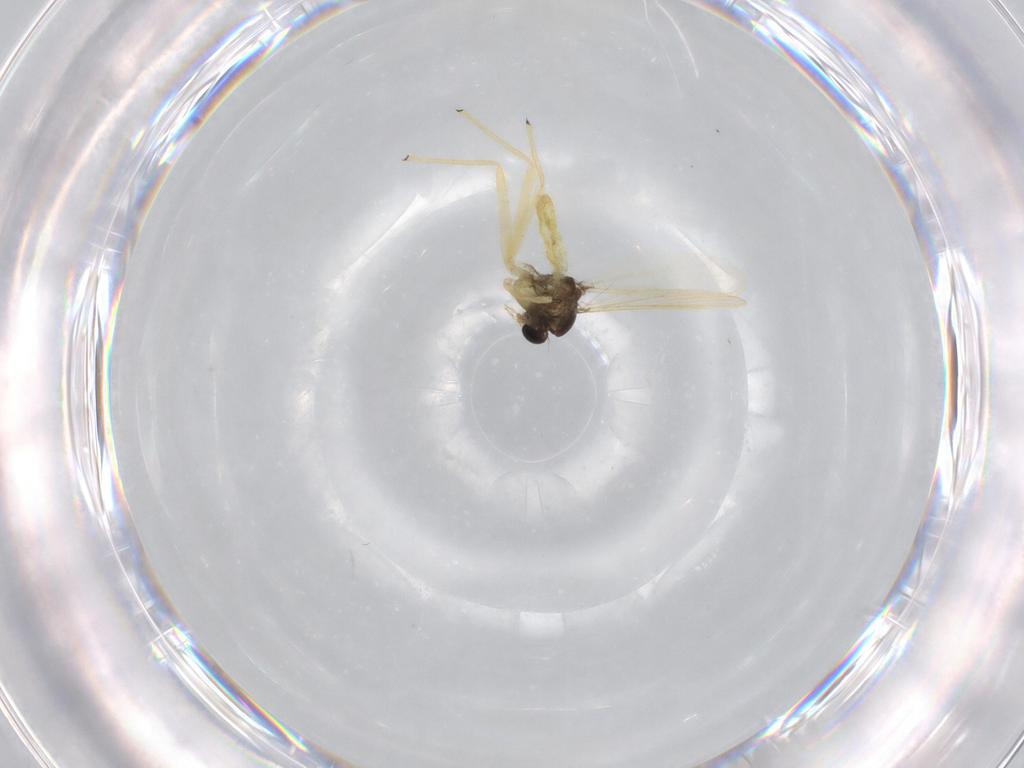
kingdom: Animalia
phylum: Arthropoda
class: Insecta
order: Diptera
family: Chironomidae
